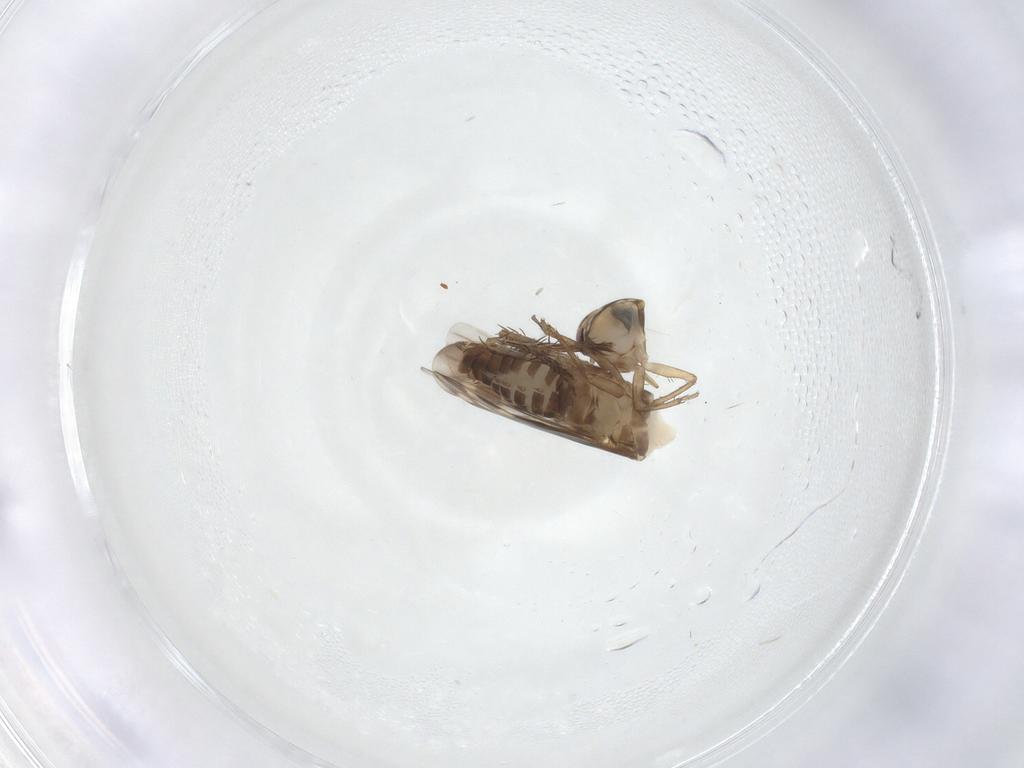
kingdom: Animalia
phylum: Arthropoda
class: Insecta
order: Hemiptera
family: Cicadellidae
